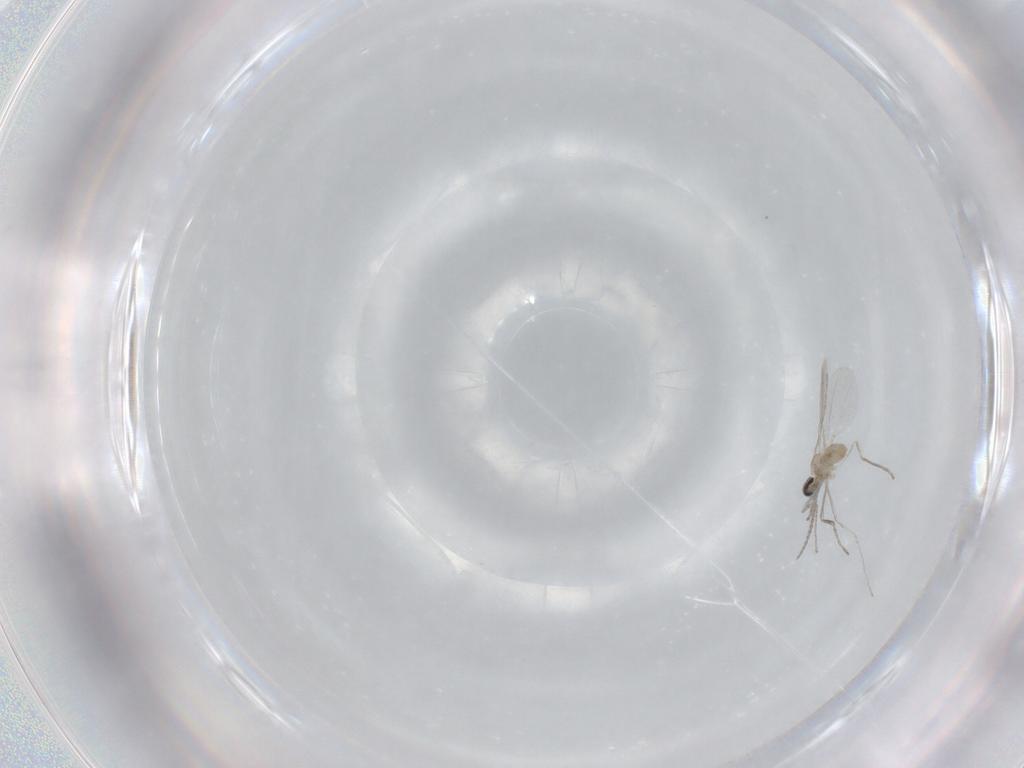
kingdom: Animalia
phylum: Arthropoda
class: Insecta
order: Diptera
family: Cecidomyiidae
